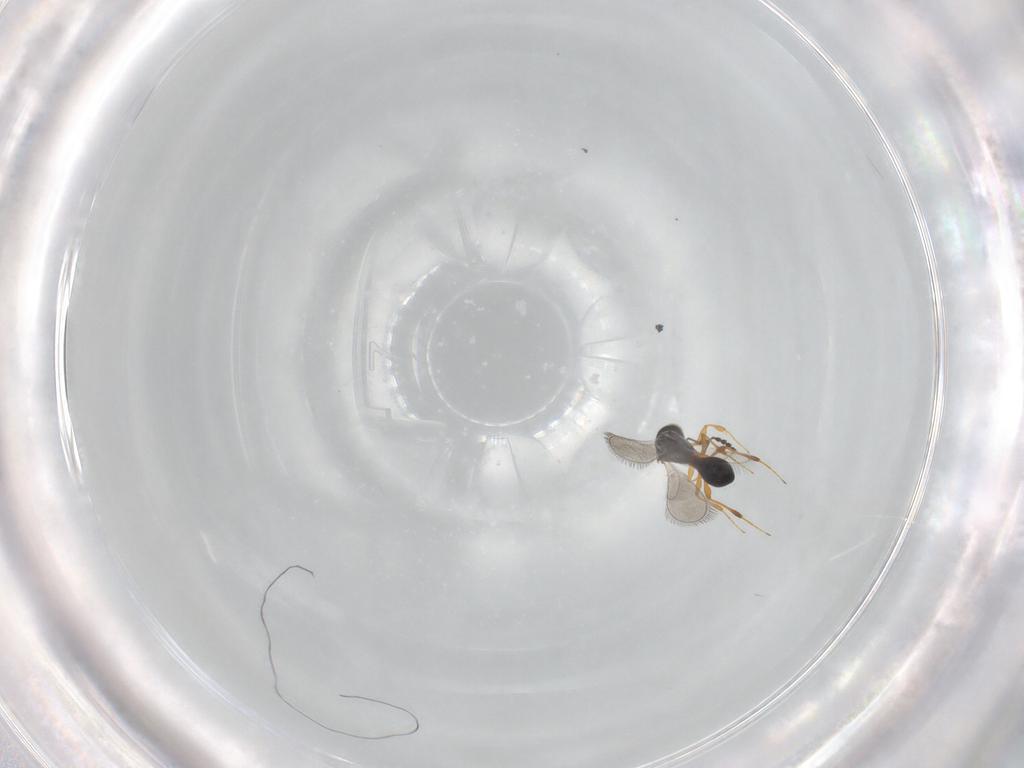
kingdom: Animalia
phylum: Arthropoda
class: Insecta
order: Hymenoptera
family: Platygastridae
